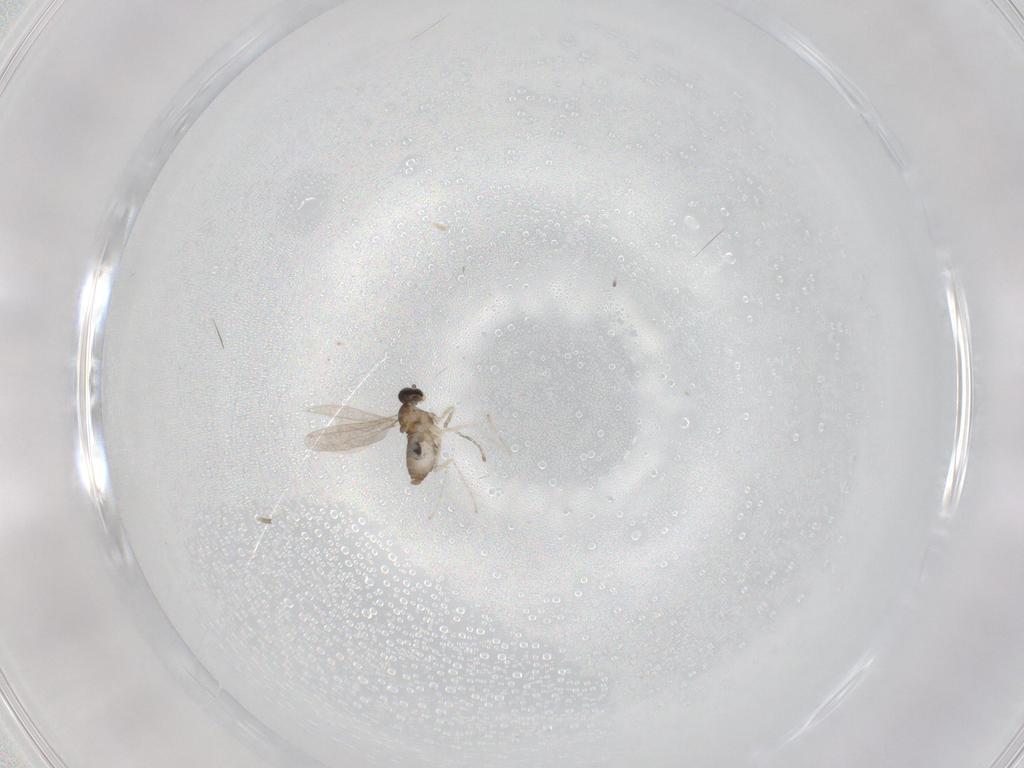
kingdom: Animalia
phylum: Arthropoda
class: Insecta
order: Diptera
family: Cecidomyiidae
